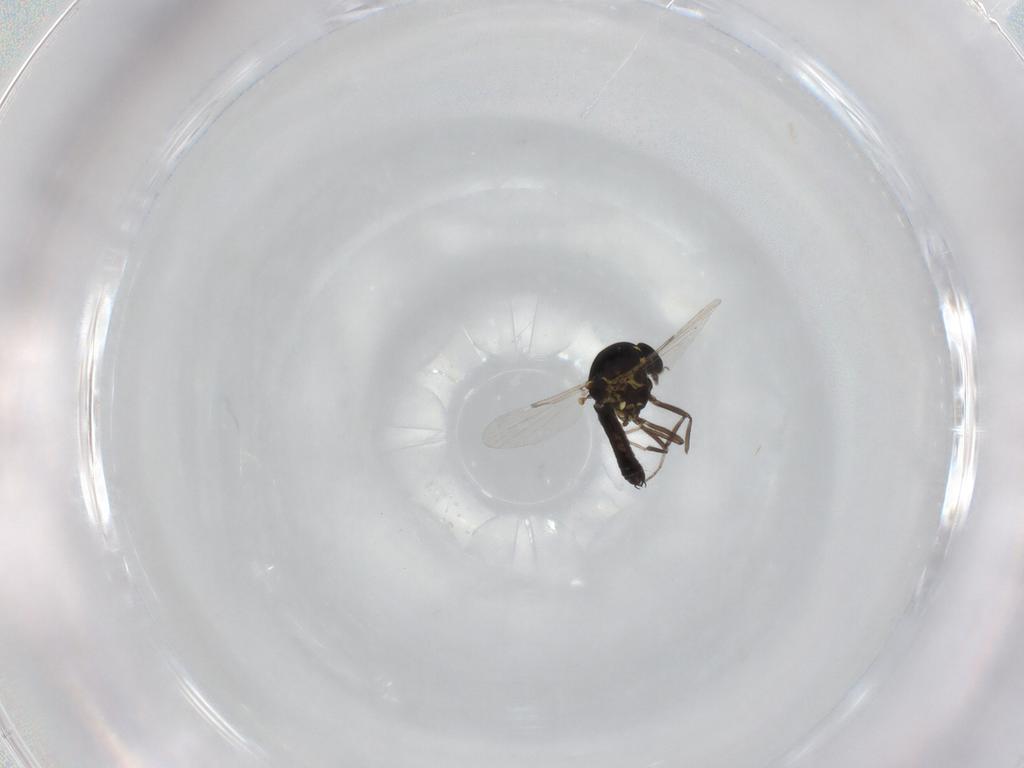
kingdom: Animalia
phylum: Arthropoda
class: Insecta
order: Diptera
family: Ceratopogonidae
